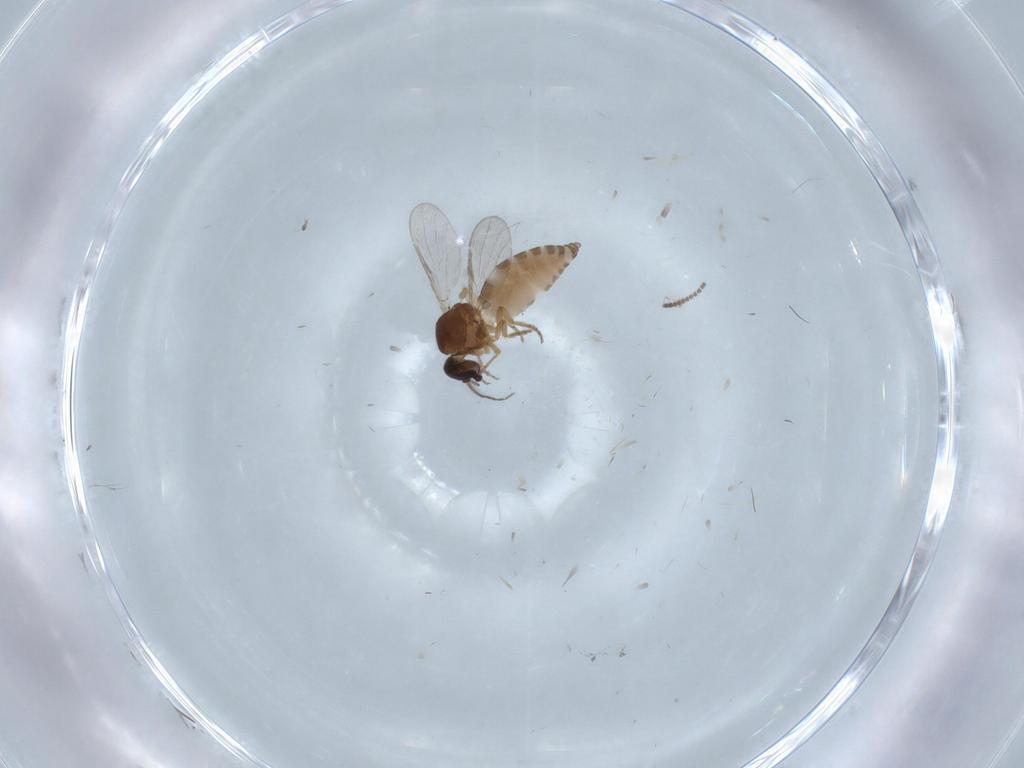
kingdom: Animalia
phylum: Arthropoda
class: Insecta
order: Diptera
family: Ceratopogonidae
